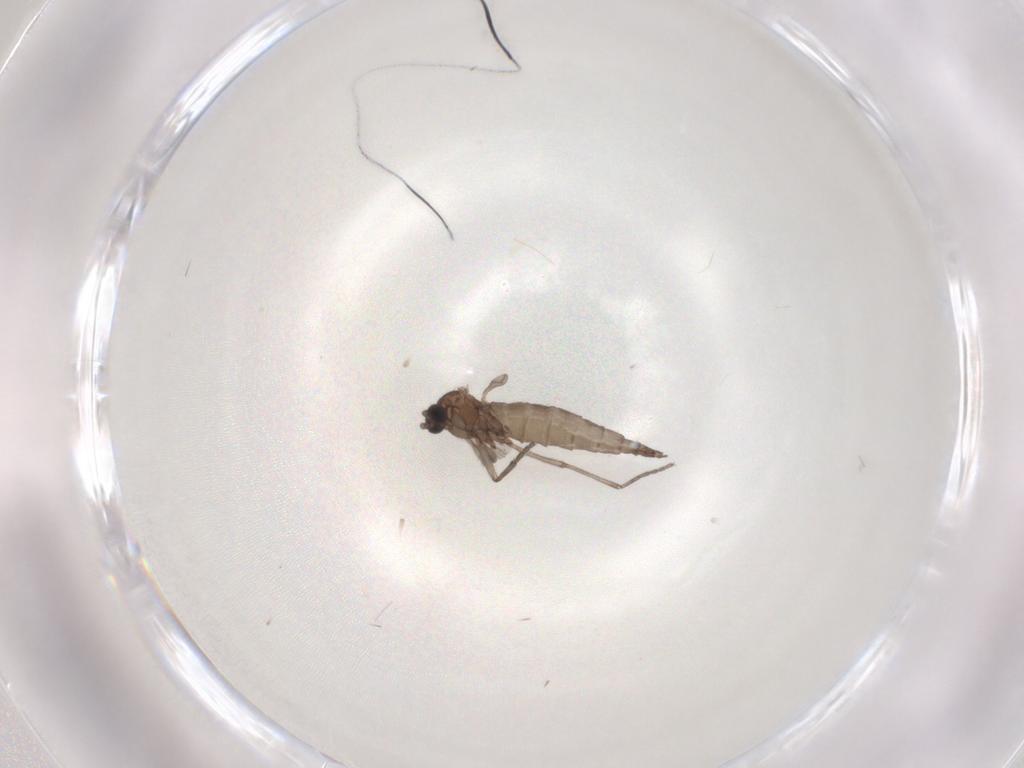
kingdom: Animalia
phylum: Arthropoda
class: Insecta
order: Diptera
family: Sciaridae
